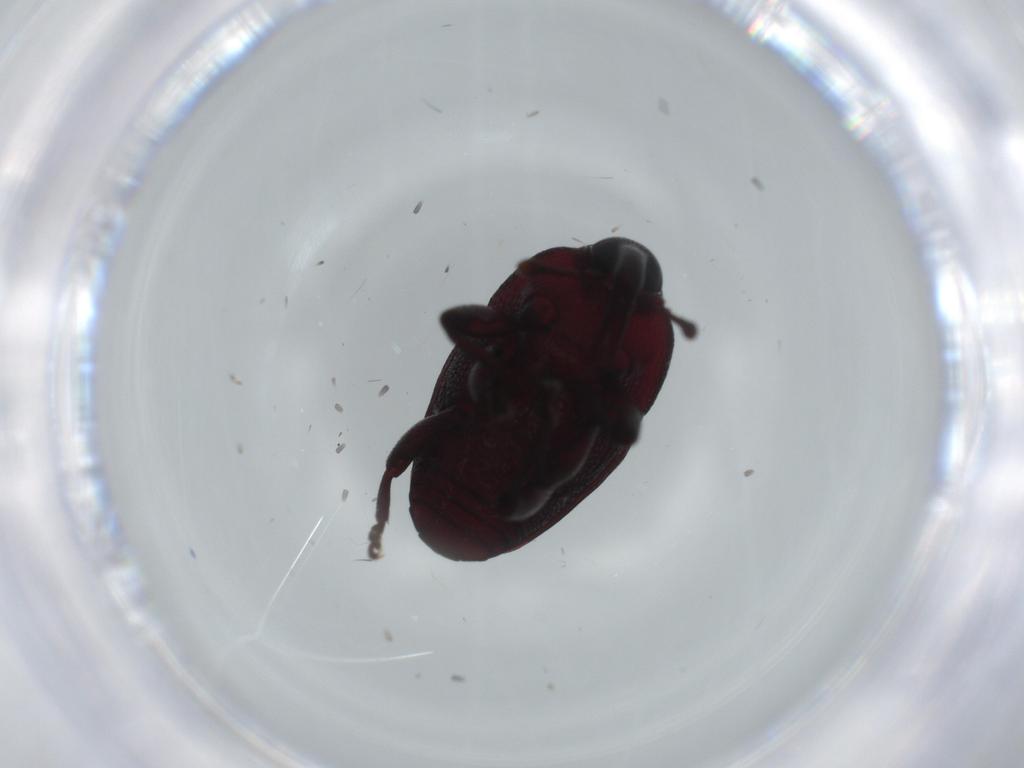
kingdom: Animalia
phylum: Arthropoda
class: Insecta
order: Coleoptera
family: Curculionidae
